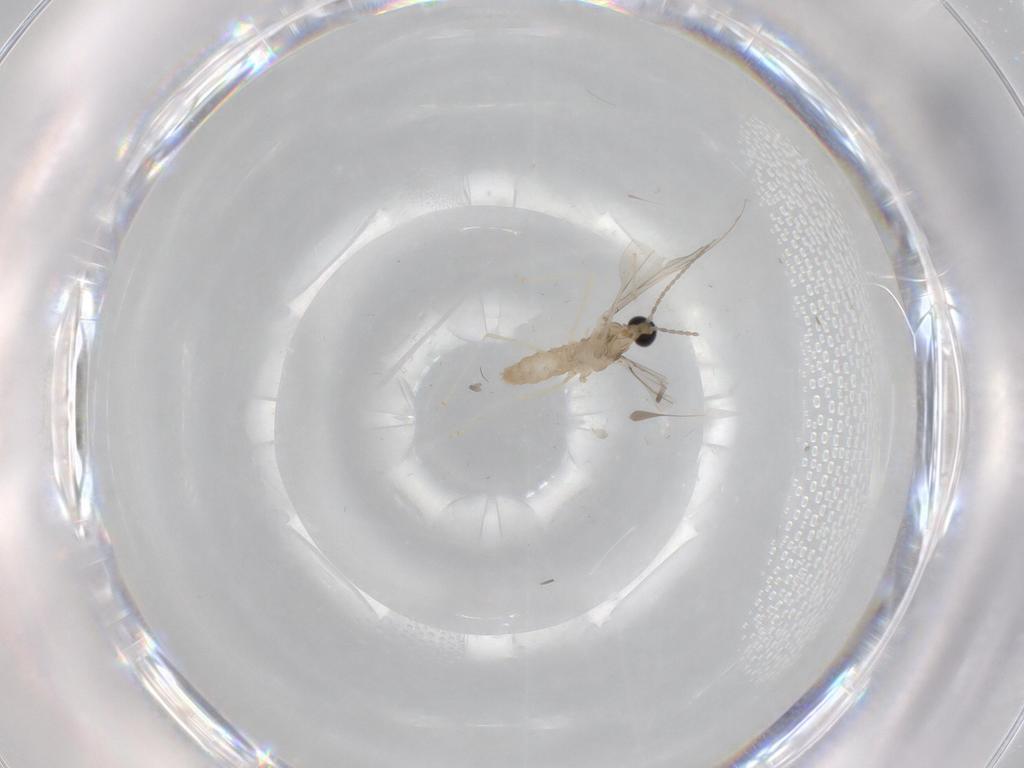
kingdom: Animalia
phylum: Arthropoda
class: Insecta
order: Diptera
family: Cecidomyiidae
